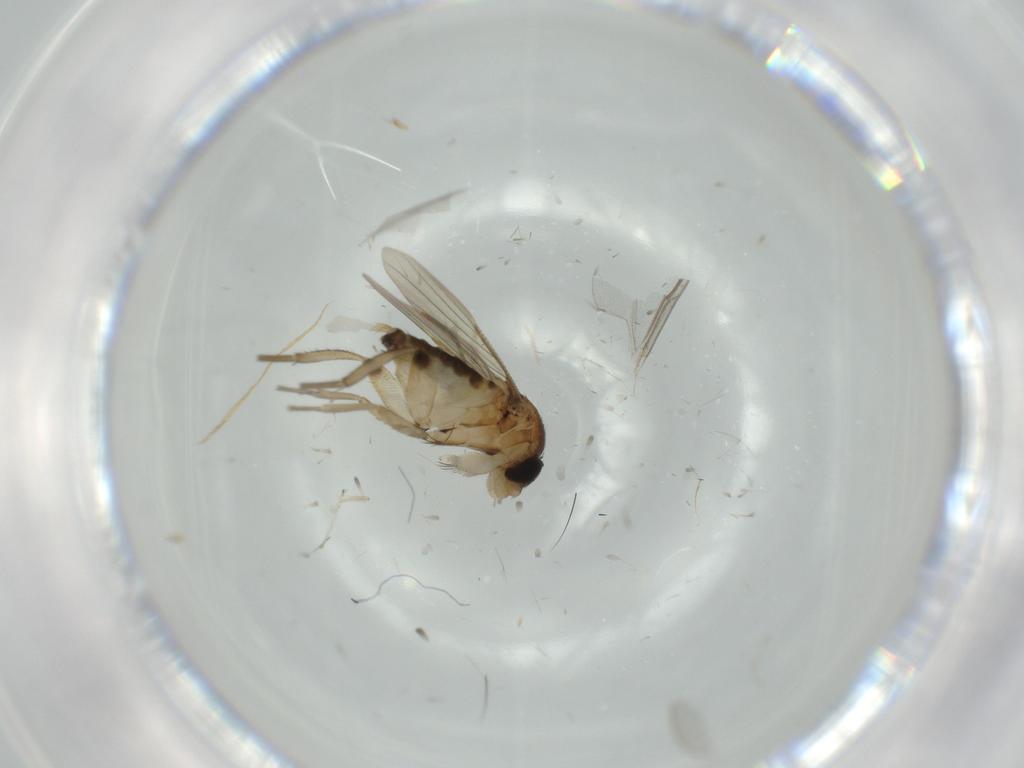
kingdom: Animalia
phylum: Arthropoda
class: Insecta
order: Diptera
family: Phoridae
